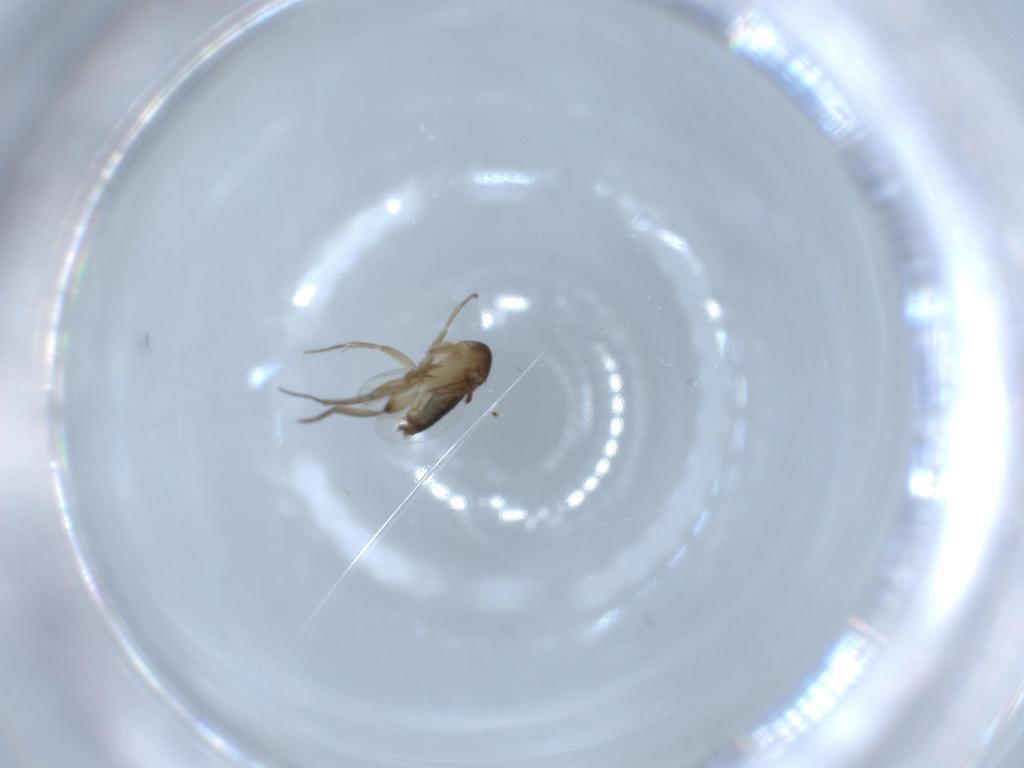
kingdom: Animalia
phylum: Arthropoda
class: Insecta
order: Diptera
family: Phoridae
